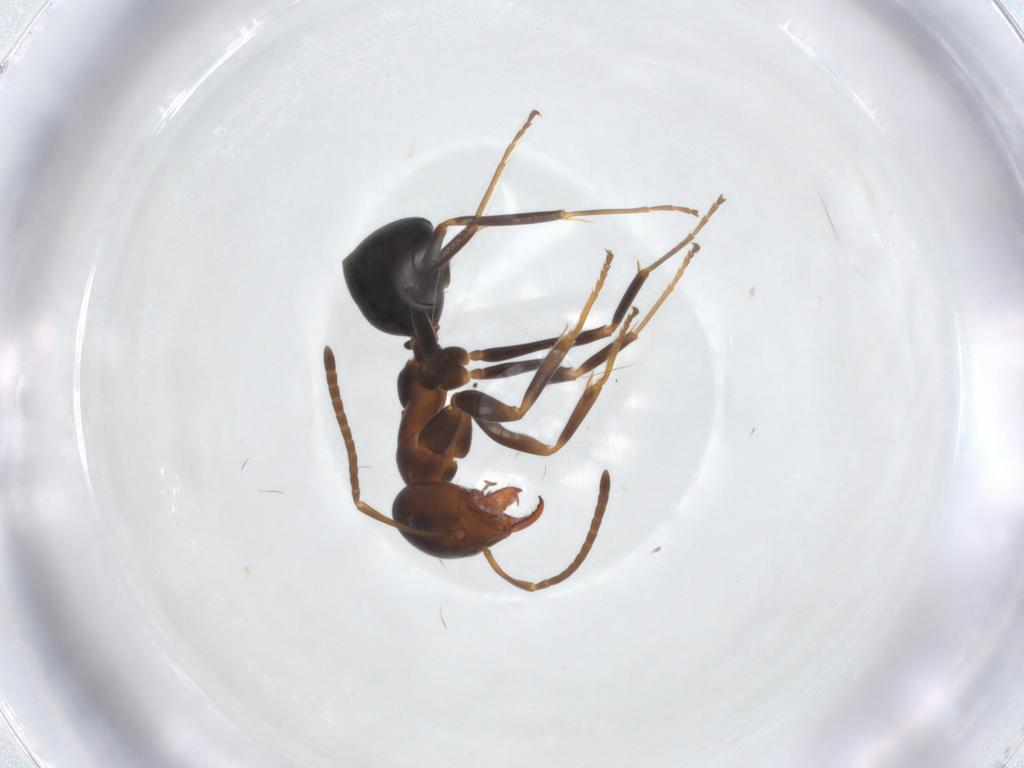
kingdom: Animalia
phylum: Arthropoda
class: Insecta
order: Hymenoptera
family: Formicidae
